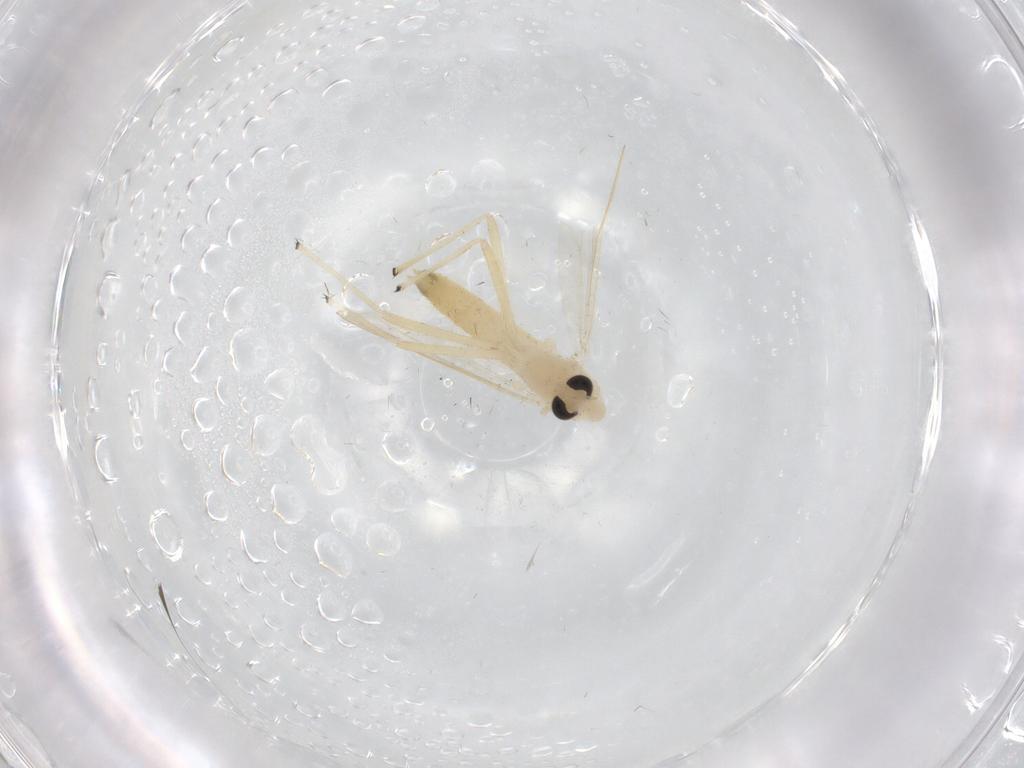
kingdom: Animalia
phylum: Arthropoda
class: Insecta
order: Diptera
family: Chironomidae
